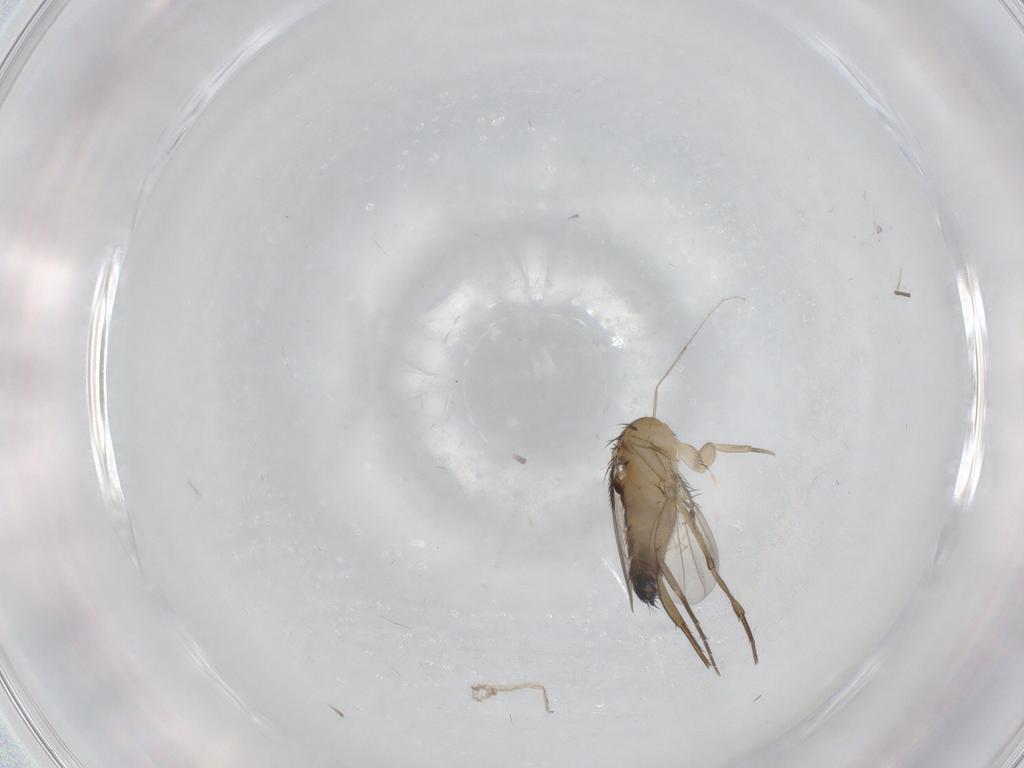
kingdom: Animalia
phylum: Arthropoda
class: Insecta
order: Diptera
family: Phoridae
